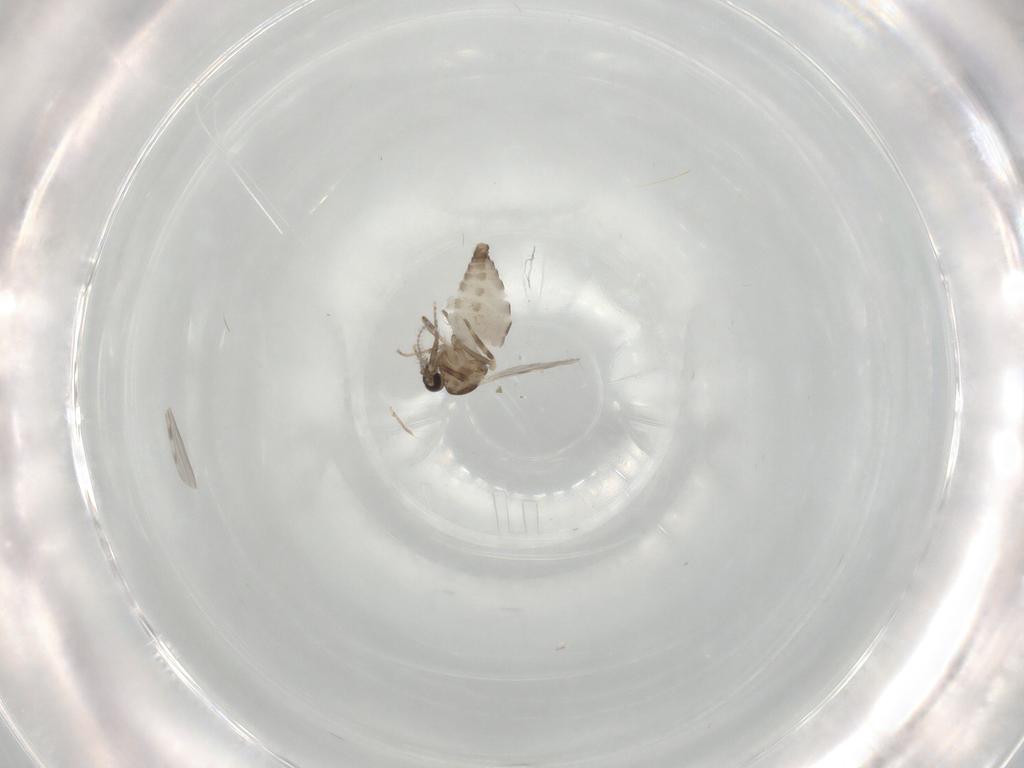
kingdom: Animalia
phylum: Arthropoda
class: Insecta
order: Diptera
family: Ceratopogonidae
